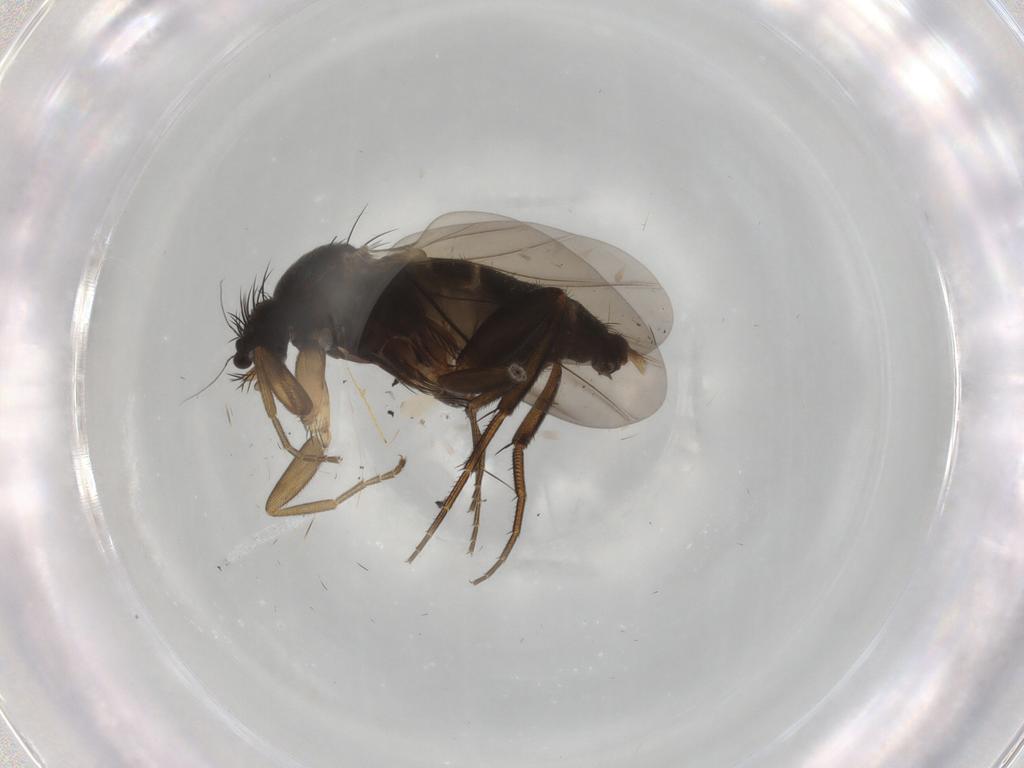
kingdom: Animalia
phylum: Arthropoda
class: Insecta
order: Diptera
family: Phoridae
